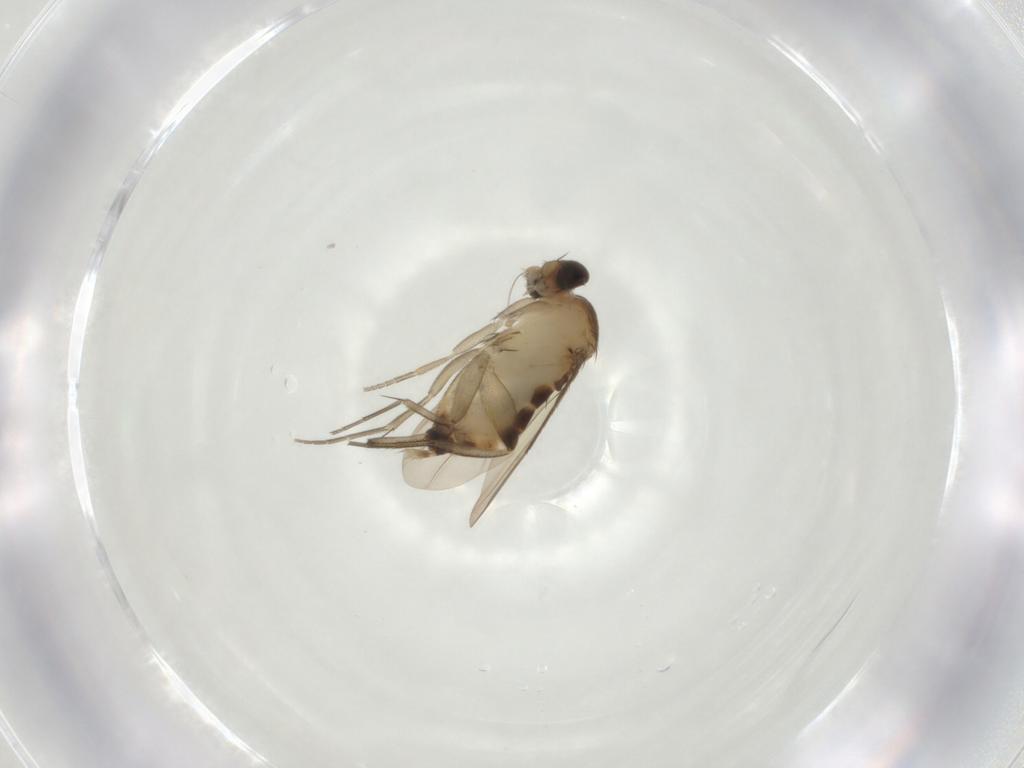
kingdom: Animalia
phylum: Arthropoda
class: Insecta
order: Diptera
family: Phoridae
